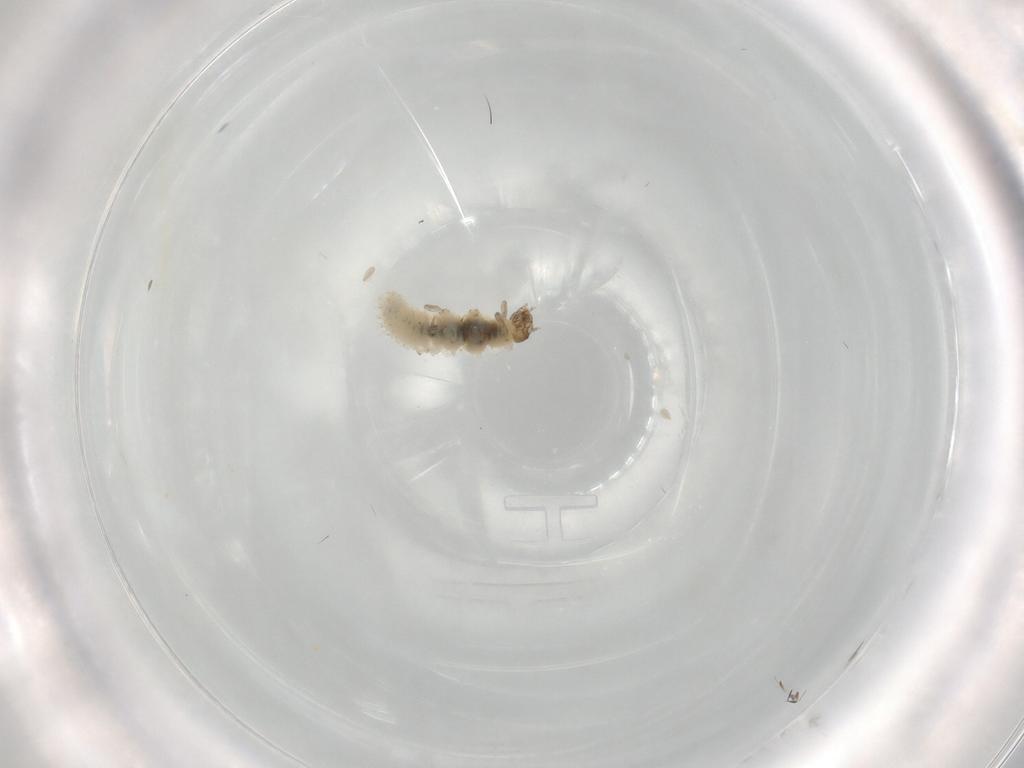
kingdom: Animalia
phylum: Arthropoda
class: Insecta
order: Coleoptera
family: Latridiidae
